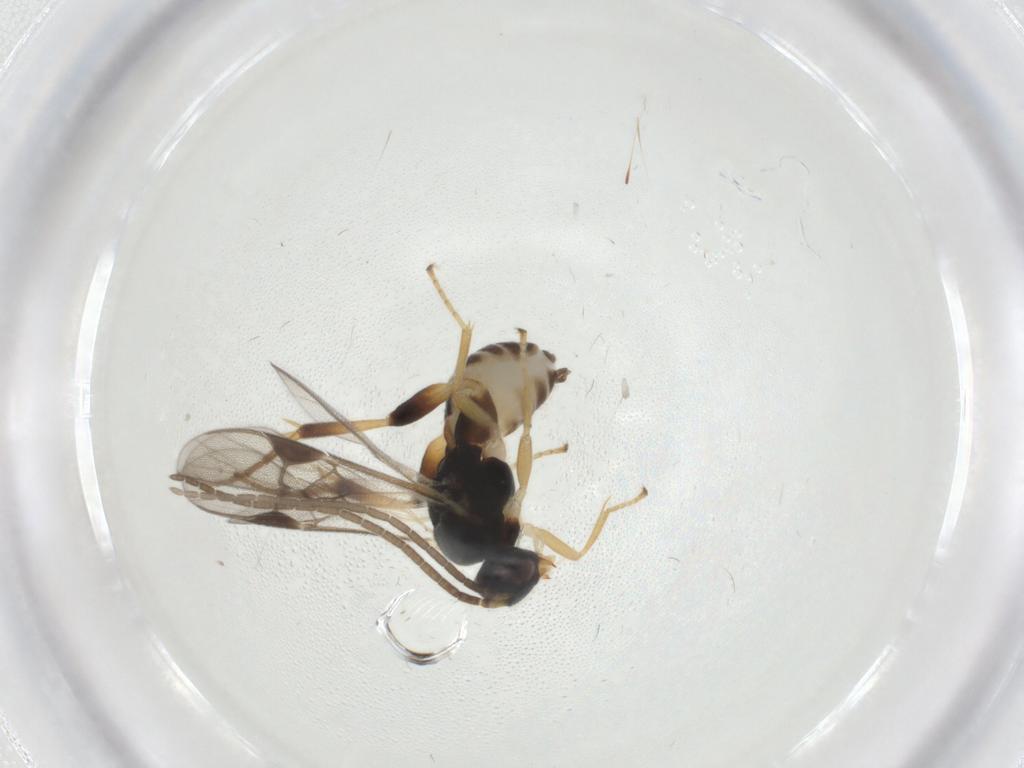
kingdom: Animalia
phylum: Arthropoda
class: Insecta
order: Hymenoptera
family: Braconidae
